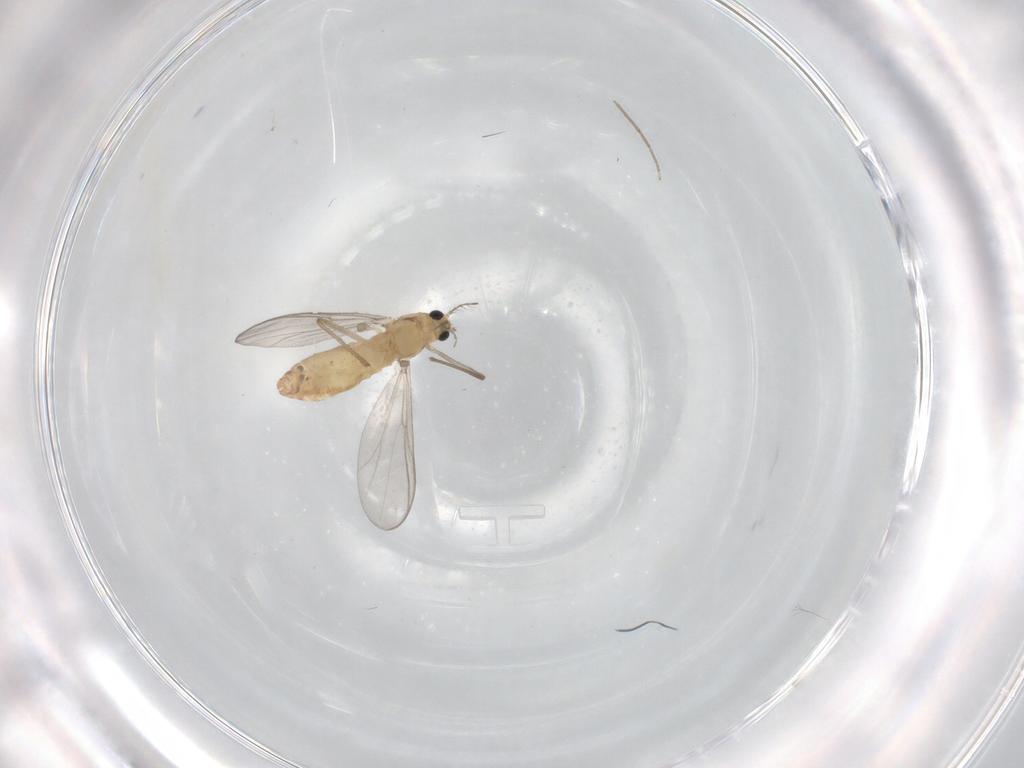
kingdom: Animalia
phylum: Arthropoda
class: Insecta
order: Diptera
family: Chironomidae
